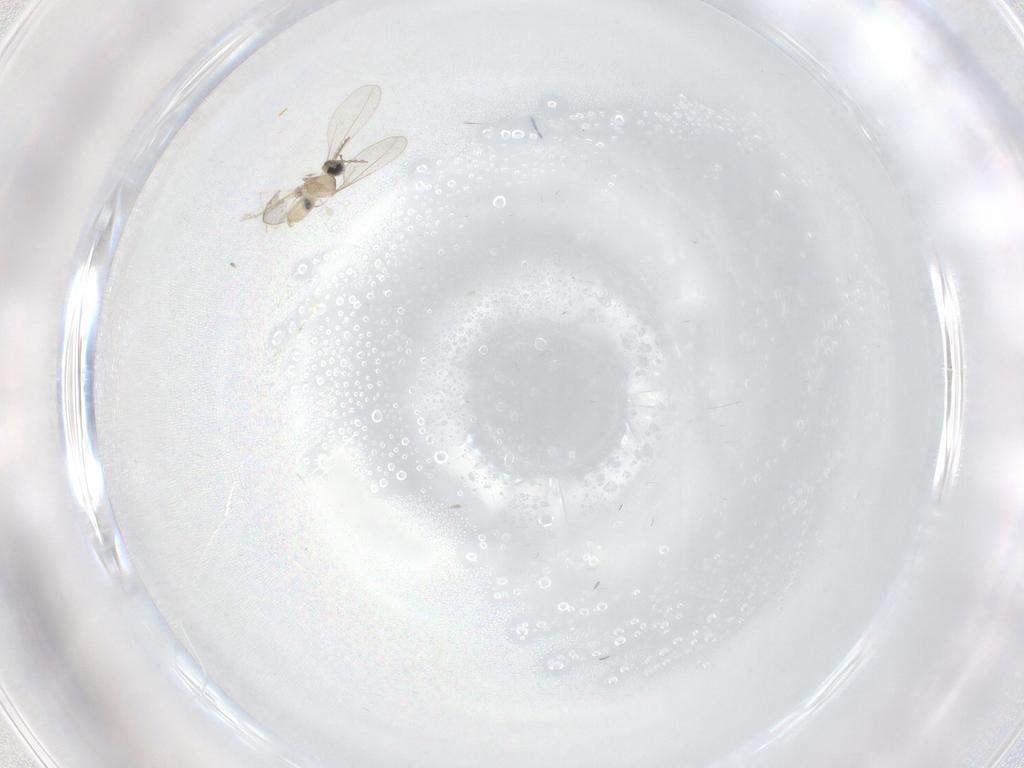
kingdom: Animalia
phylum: Arthropoda
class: Insecta
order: Diptera
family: Cecidomyiidae
